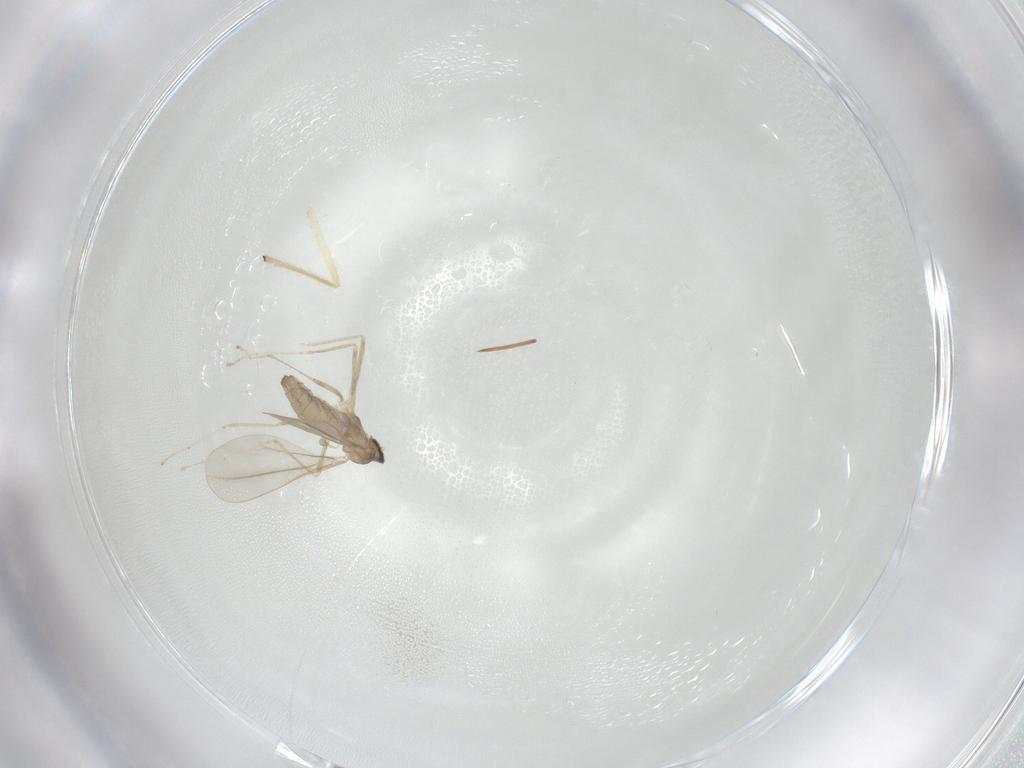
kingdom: Animalia
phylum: Arthropoda
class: Insecta
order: Diptera
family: Cecidomyiidae
